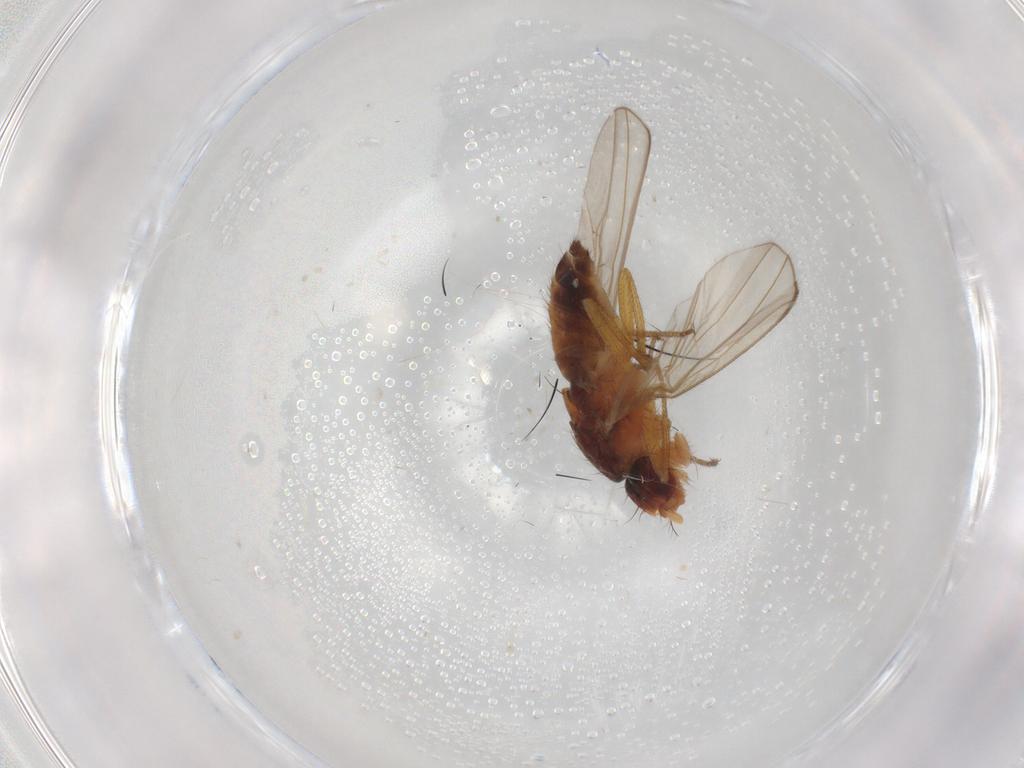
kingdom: Animalia
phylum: Arthropoda
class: Insecta
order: Diptera
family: Drosophilidae
